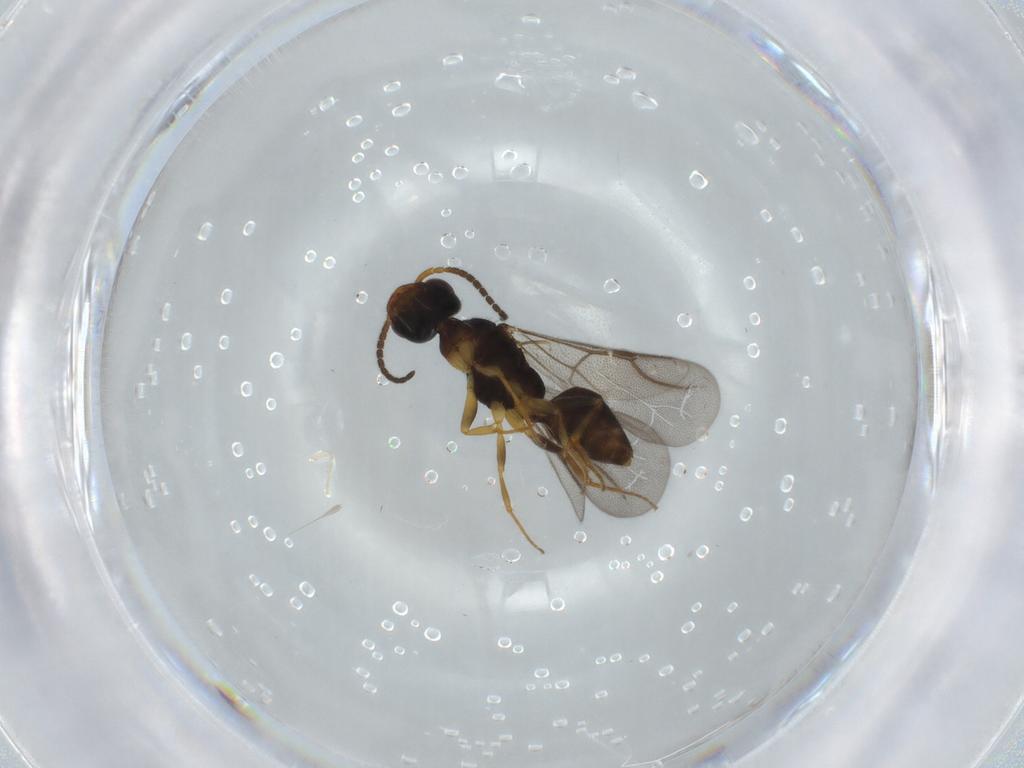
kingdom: Animalia
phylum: Arthropoda
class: Insecta
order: Hymenoptera
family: Bethylidae
